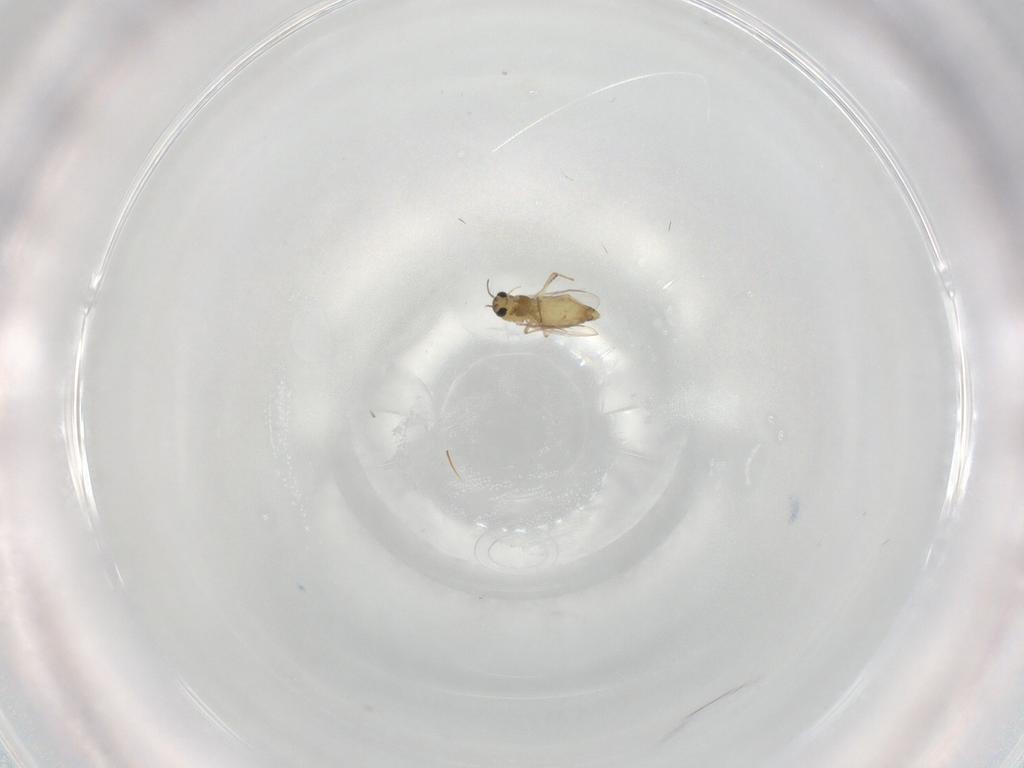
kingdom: Animalia
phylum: Arthropoda
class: Insecta
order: Diptera
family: Chironomidae
